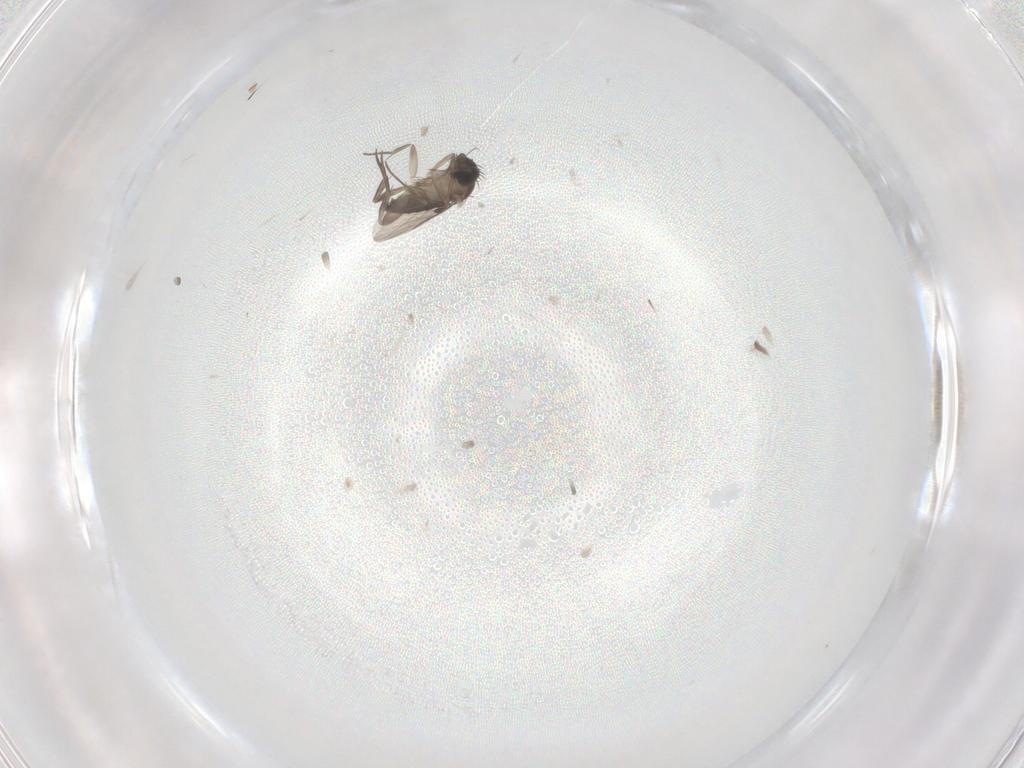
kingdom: Animalia
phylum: Arthropoda
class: Insecta
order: Diptera
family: Phoridae
